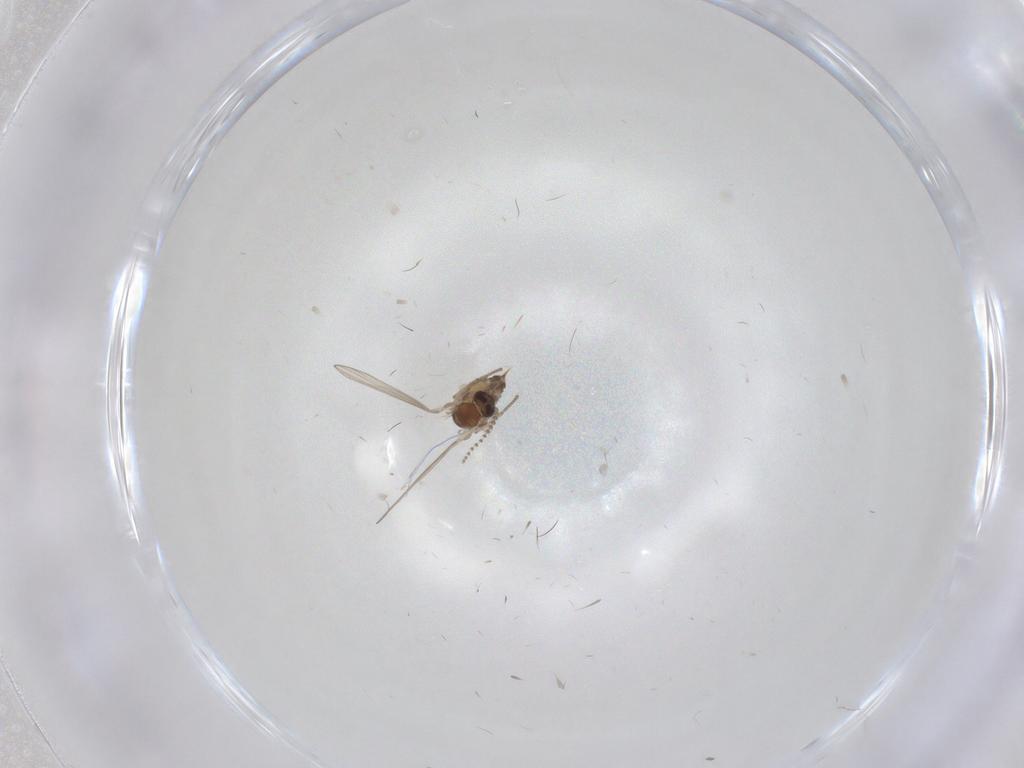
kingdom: Animalia
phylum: Arthropoda
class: Insecta
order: Diptera
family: Psychodidae
